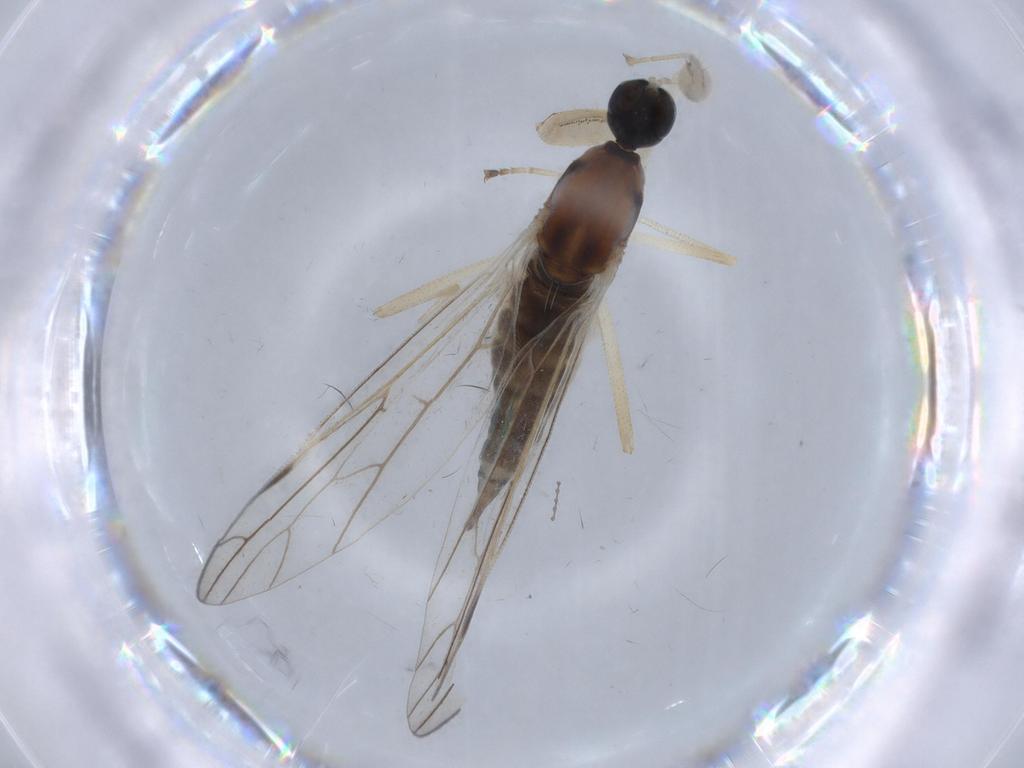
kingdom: Animalia
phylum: Arthropoda
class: Insecta
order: Diptera
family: Empididae
